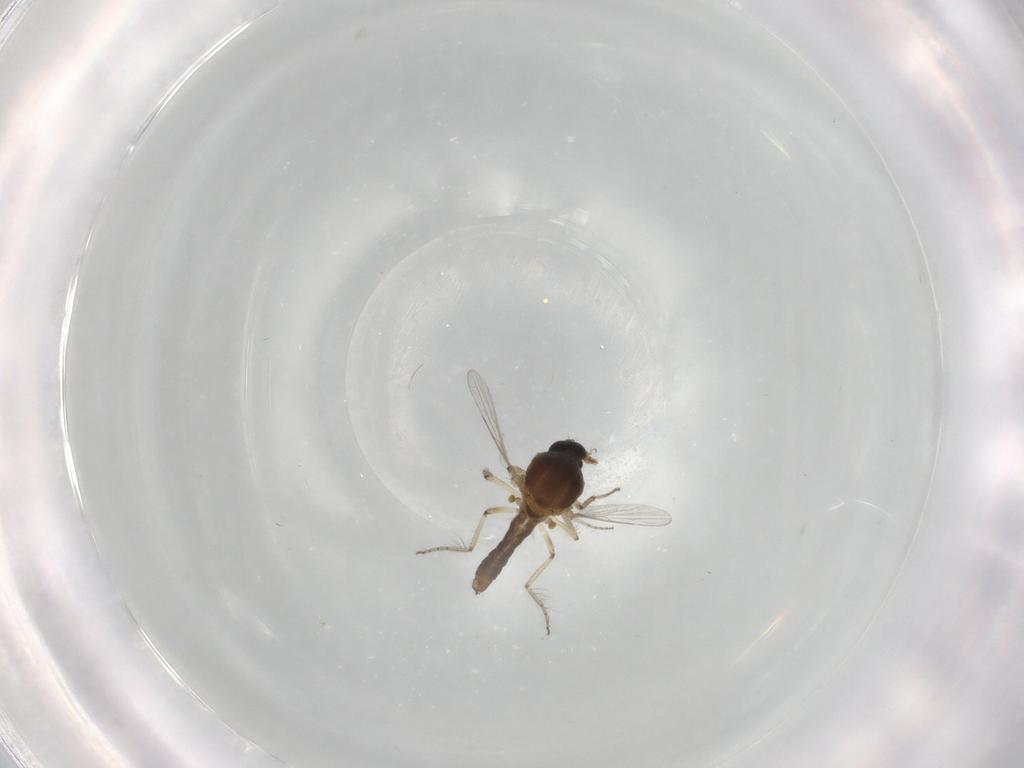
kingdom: Animalia
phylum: Arthropoda
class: Insecta
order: Diptera
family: Ceratopogonidae
